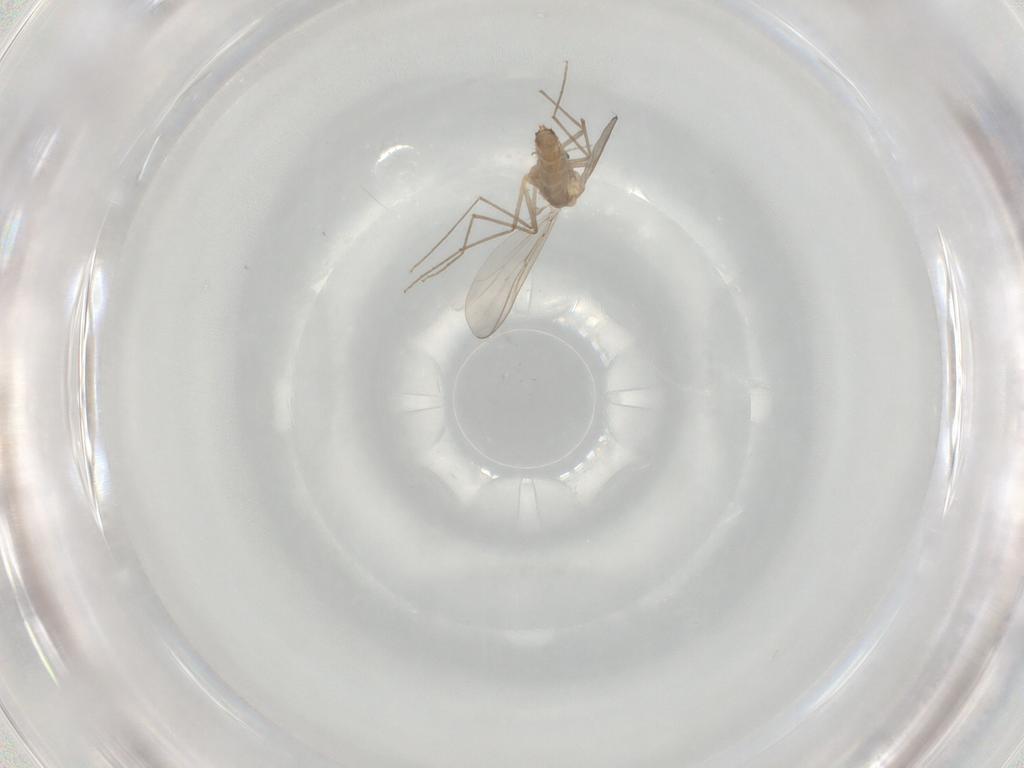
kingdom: Animalia
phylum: Arthropoda
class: Insecta
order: Diptera
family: Chironomidae
